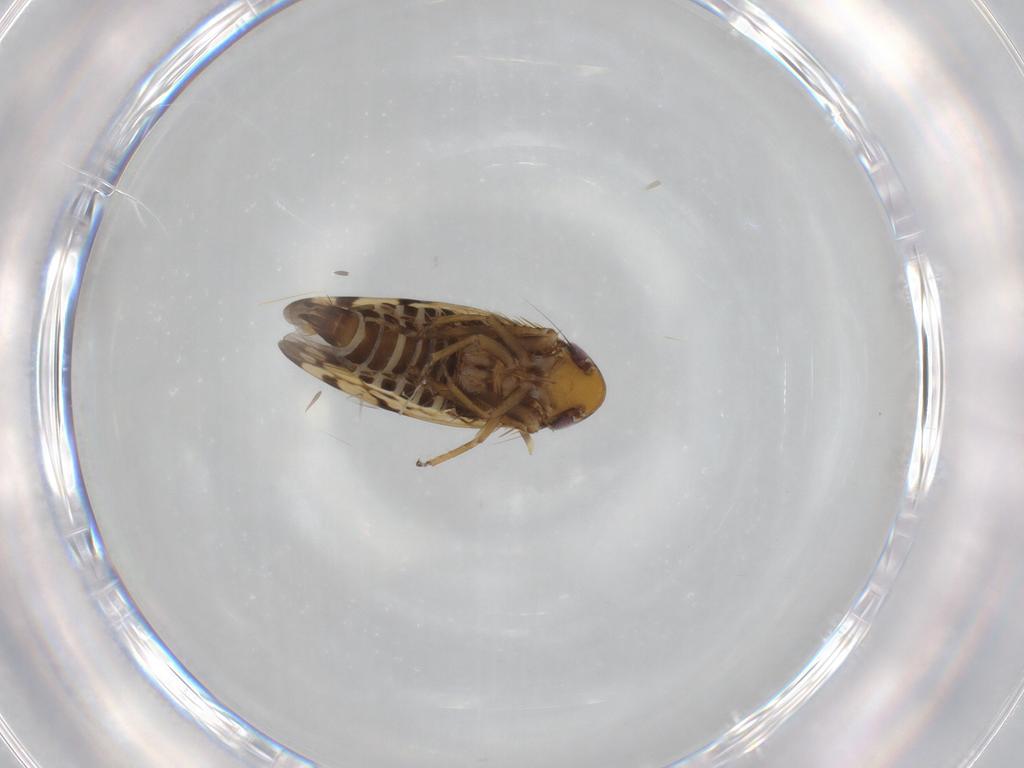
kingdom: Animalia
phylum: Arthropoda
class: Insecta
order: Hemiptera
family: Cicadellidae
